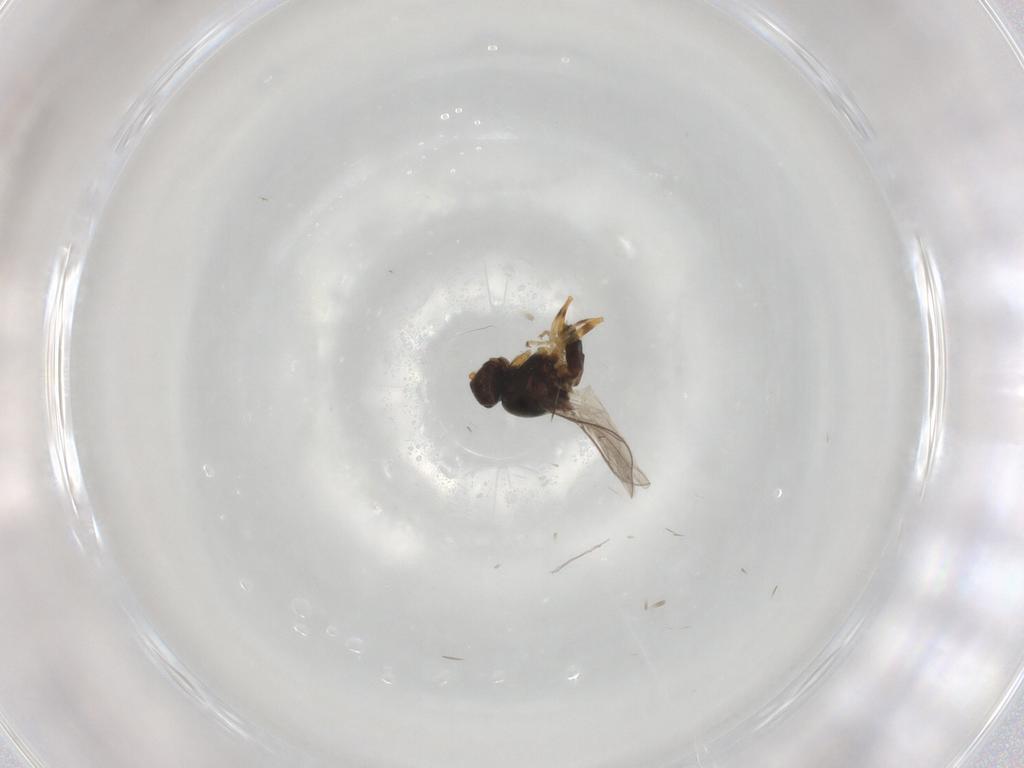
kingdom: Animalia
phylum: Arthropoda
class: Insecta
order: Diptera
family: Chloropidae
